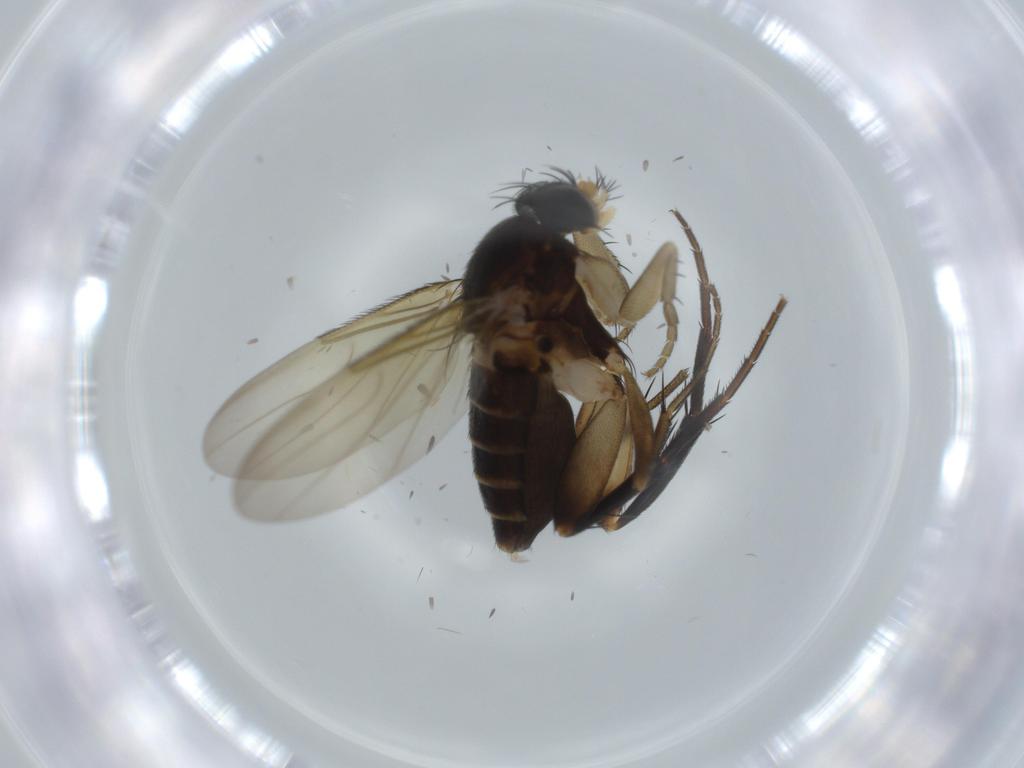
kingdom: Animalia
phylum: Arthropoda
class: Insecta
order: Diptera
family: Phoridae
